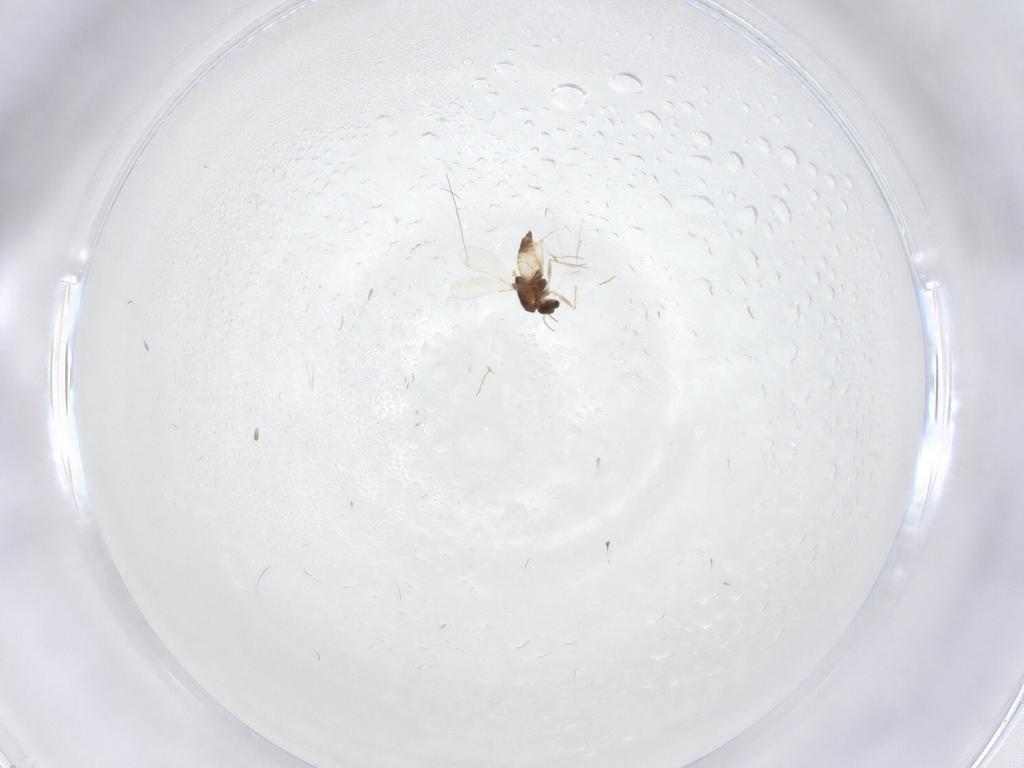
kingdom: Animalia
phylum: Arthropoda
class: Insecta
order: Diptera
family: Chironomidae
